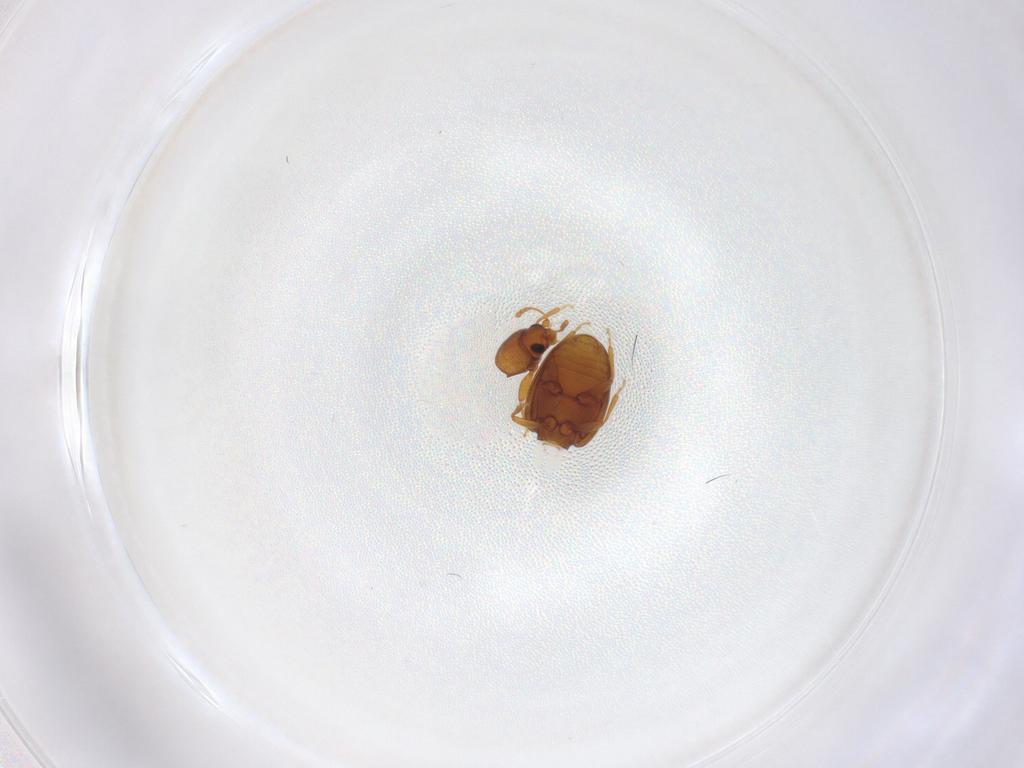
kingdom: Animalia
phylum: Arthropoda
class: Insecta
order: Coleoptera
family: Latridiidae
